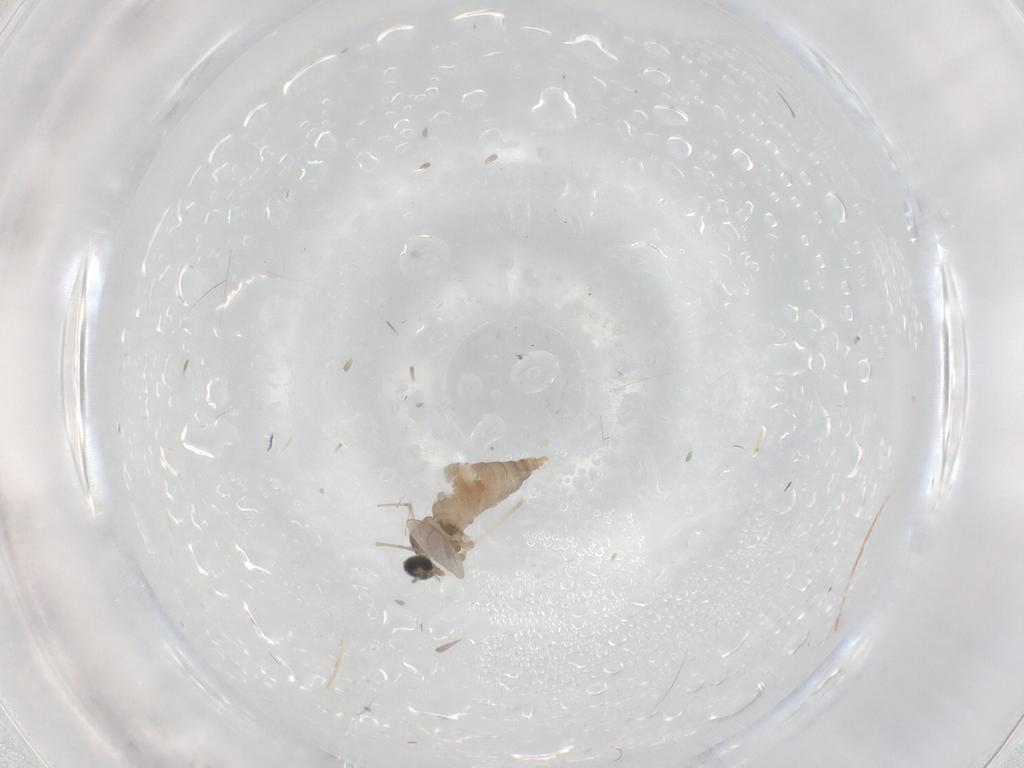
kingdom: Animalia
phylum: Arthropoda
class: Insecta
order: Diptera
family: Cecidomyiidae
